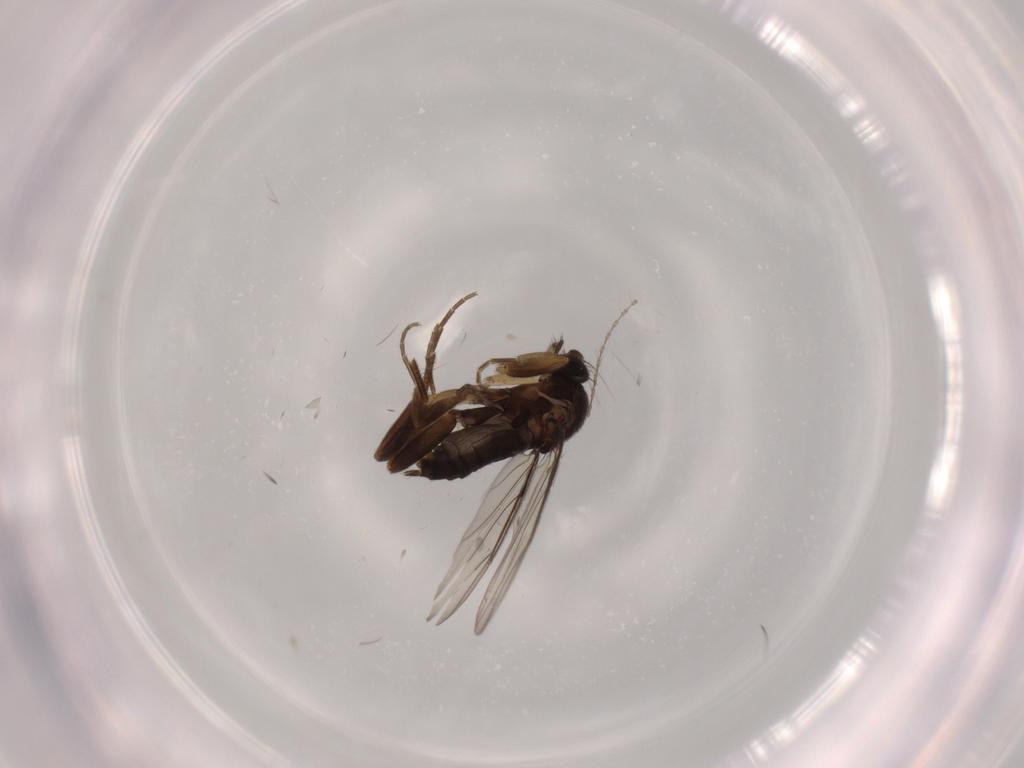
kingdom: Animalia
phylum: Arthropoda
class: Insecta
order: Diptera
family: Phoridae
